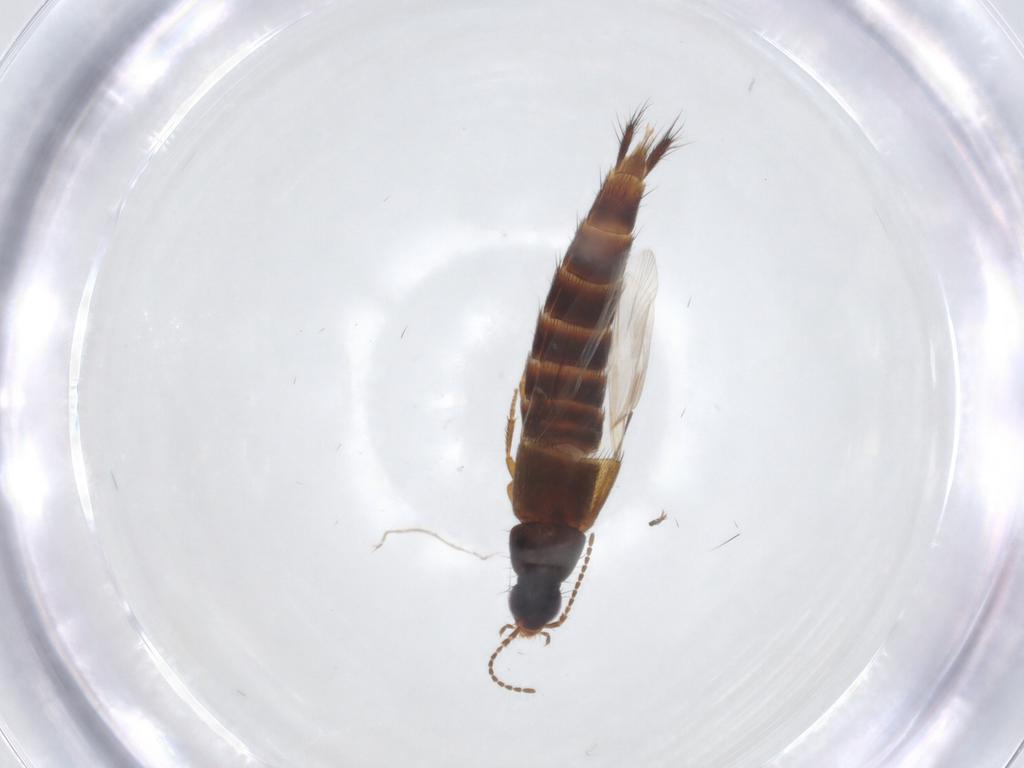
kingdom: Animalia
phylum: Arthropoda
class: Insecta
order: Coleoptera
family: Staphylinidae
